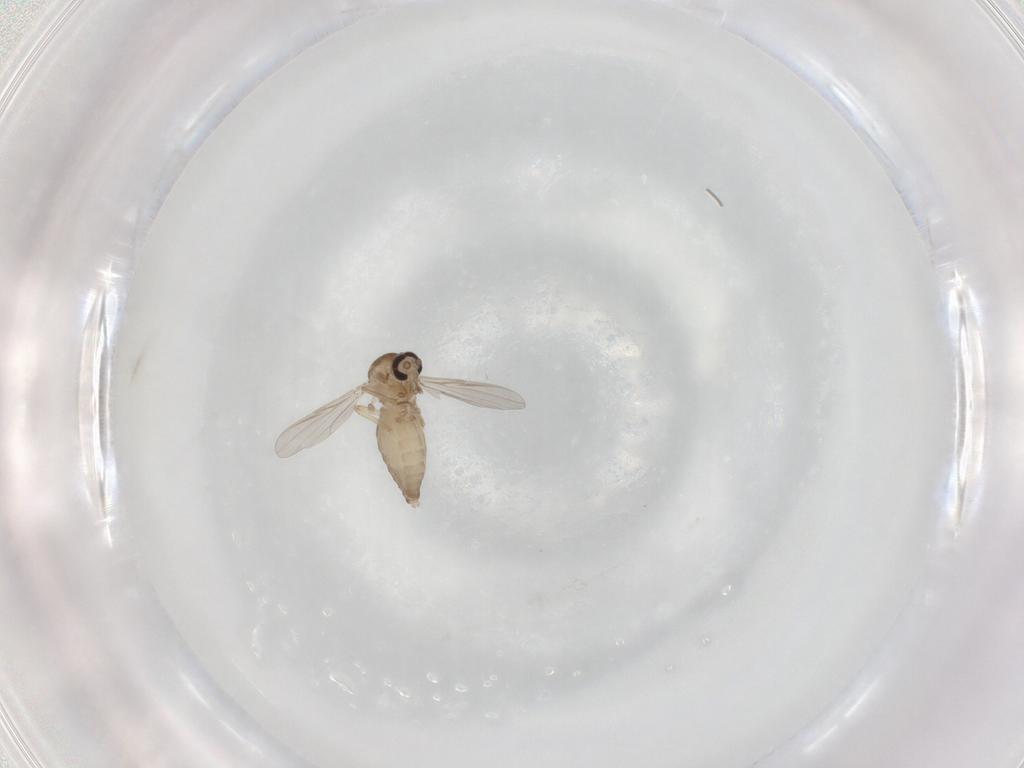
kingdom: Animalia
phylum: Arthropoda
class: Insecta
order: Diptera
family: Ceratopogonidae
